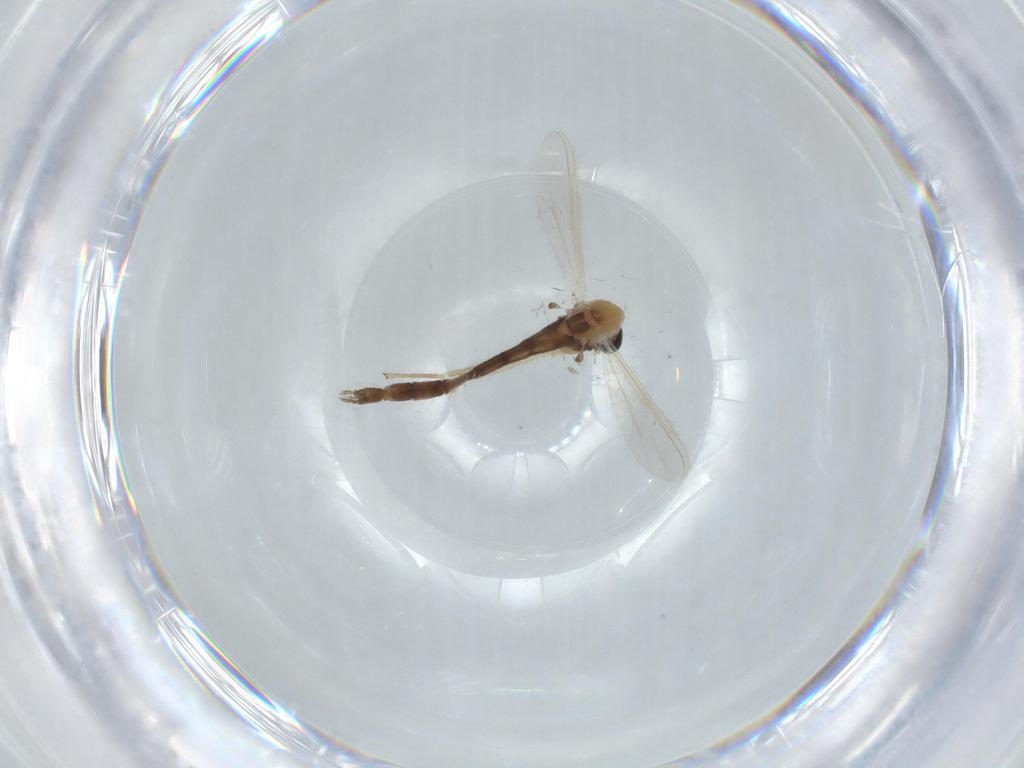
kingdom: Animalia
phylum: Arthropoda
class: Insecta
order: Diptera
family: Chironomidae
